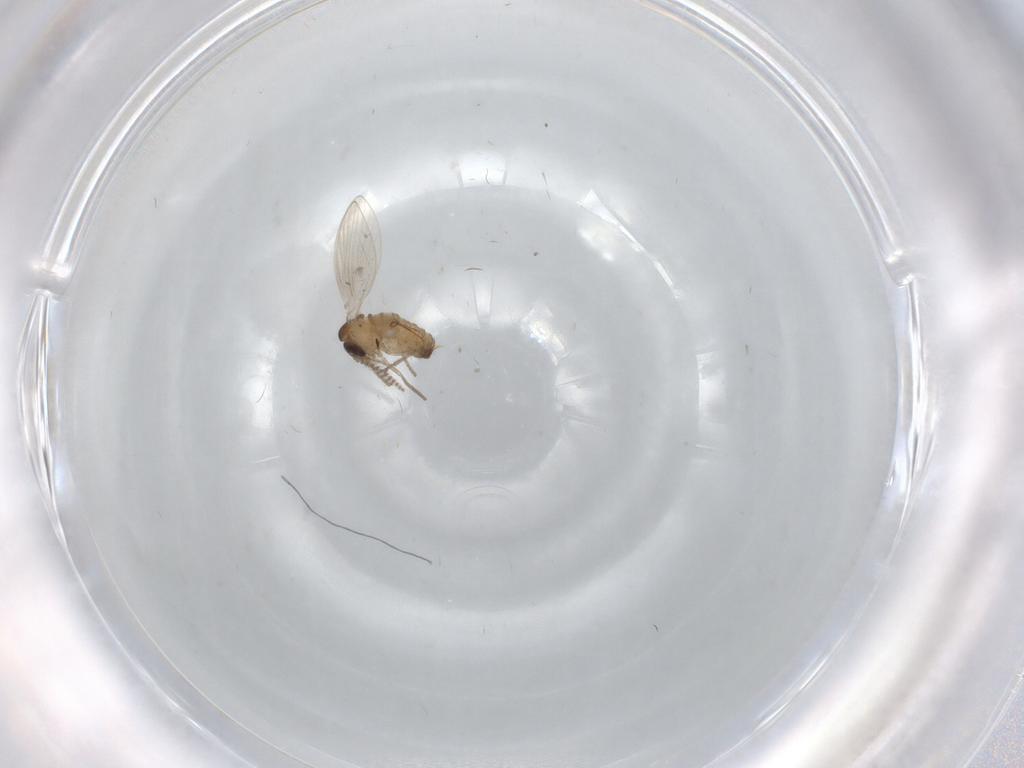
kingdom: Animalia
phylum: Arthropoda
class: Insecta
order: Diptera
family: Psychodidae
